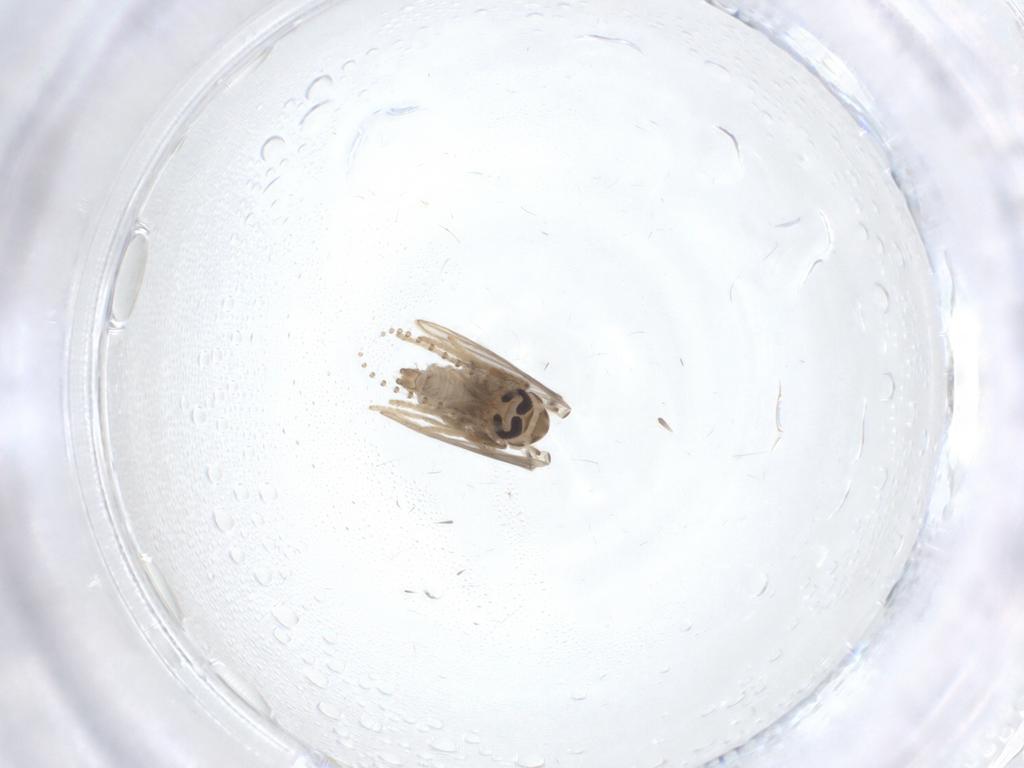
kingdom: Animalia
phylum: Arthropoda
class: Insecta
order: Diptera
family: Psychodidae
